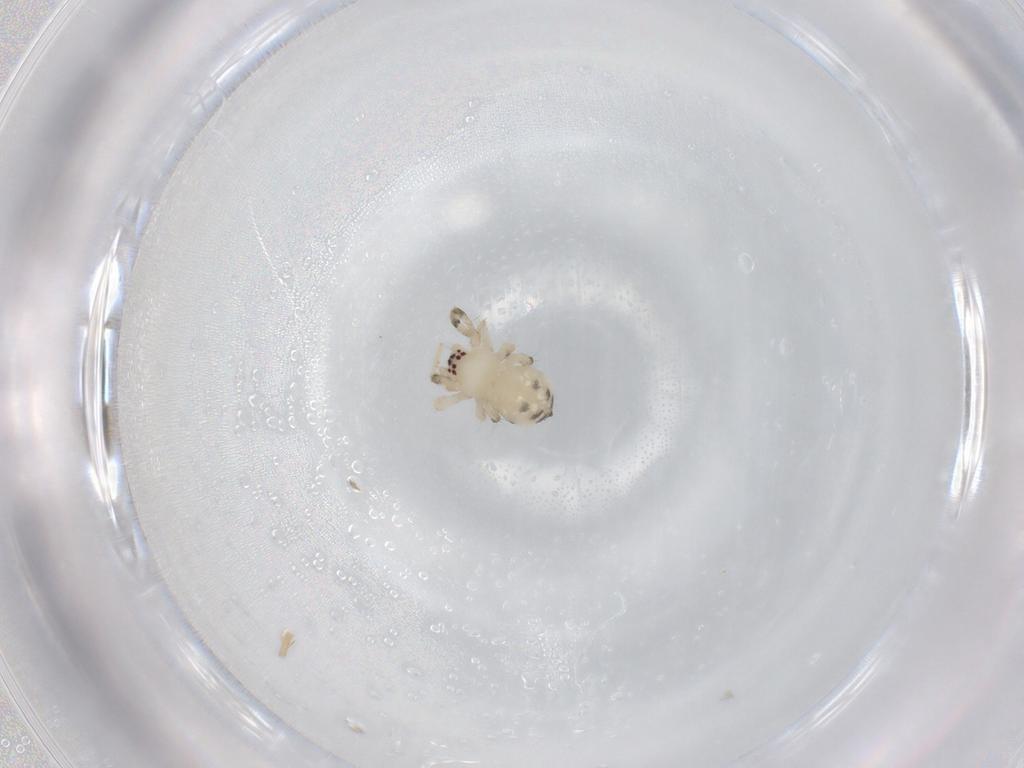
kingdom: Animalia
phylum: Arthropoda
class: Arachnida
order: Araneae
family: Uloboridae
